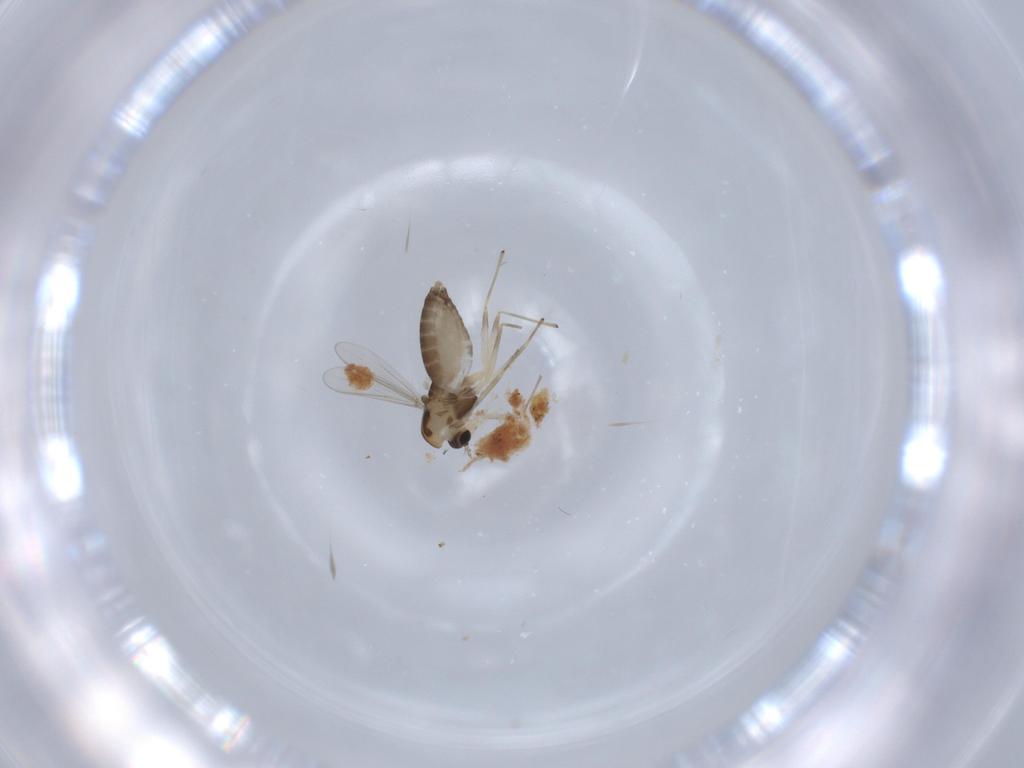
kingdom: Animalia
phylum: Arthropoda
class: Insecta
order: Diptera
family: Chironomidae
